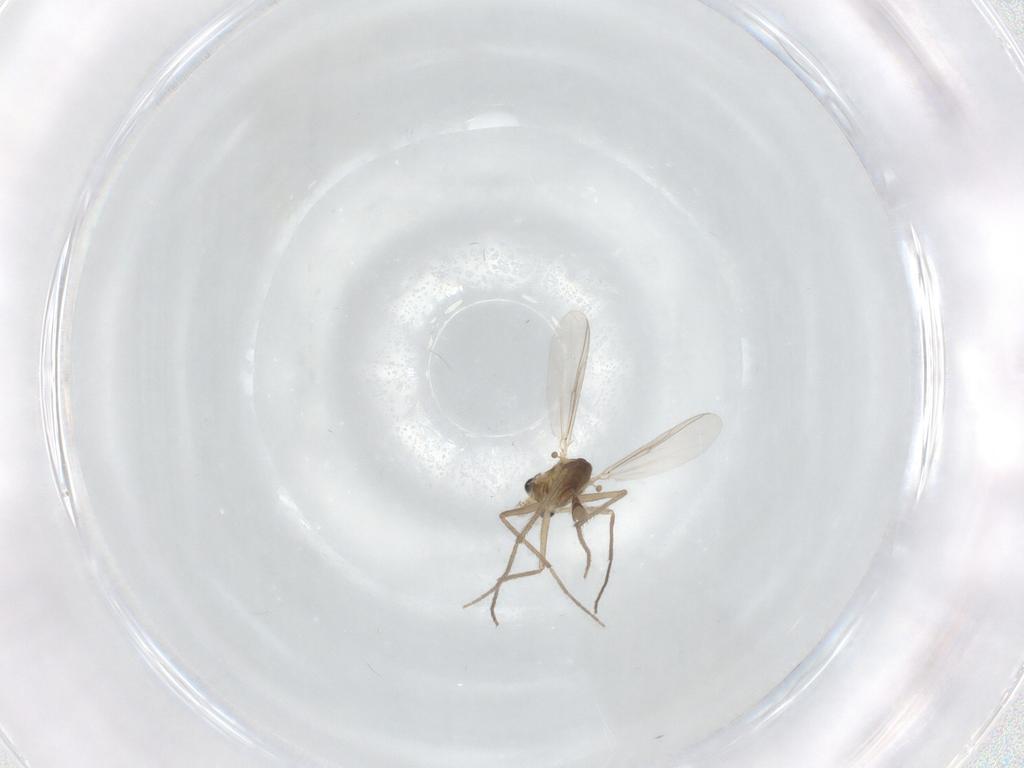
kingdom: Animalia
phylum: Arthropoda
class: Insecta
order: Diptera
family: Chironomidae
